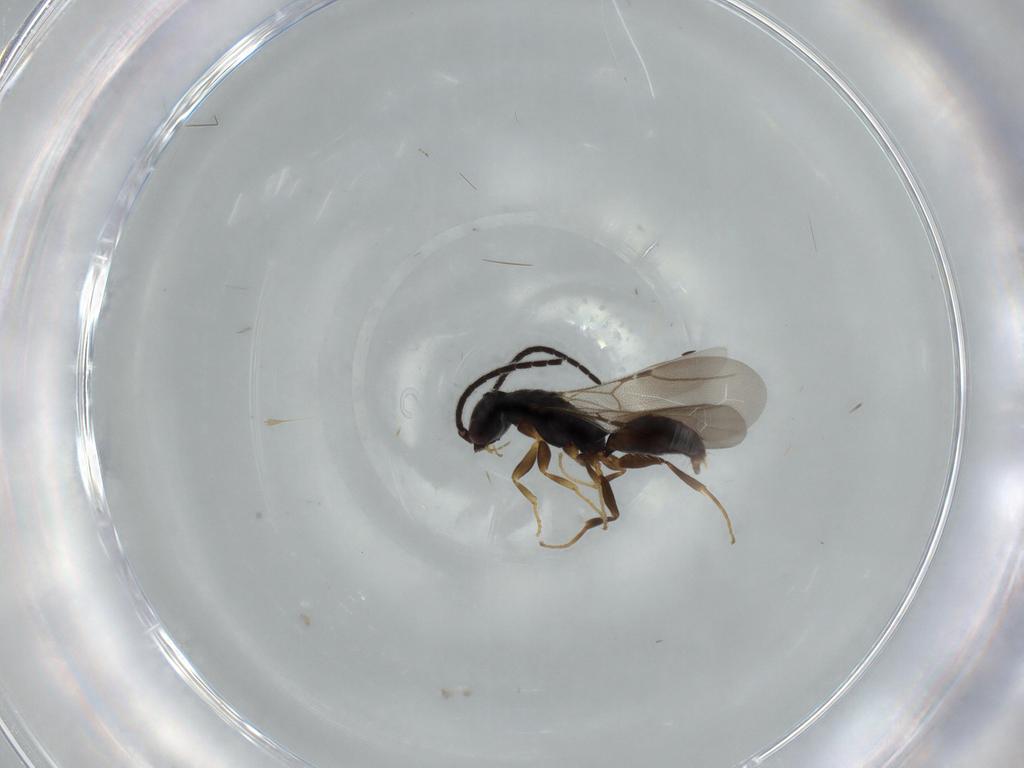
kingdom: Animalia
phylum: Arthropoda
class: Insecta
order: Hymenoptera
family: Bethylidae
